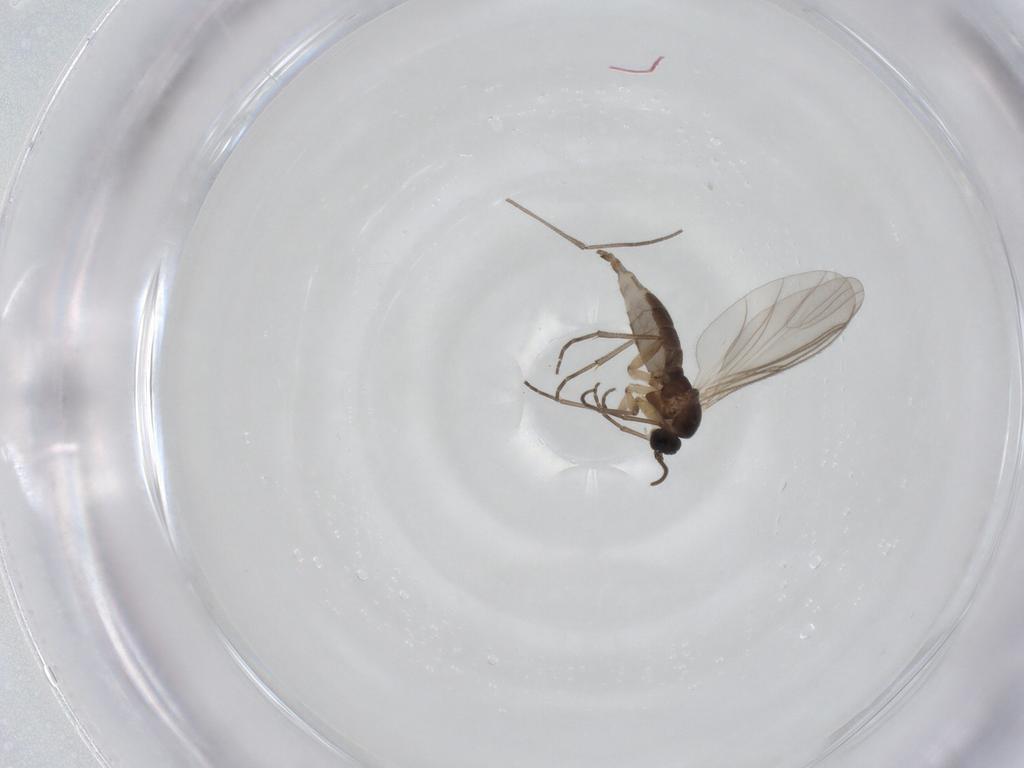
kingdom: Animalia
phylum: Arthropoda
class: Insecta
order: Diptera
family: Sciaridae
